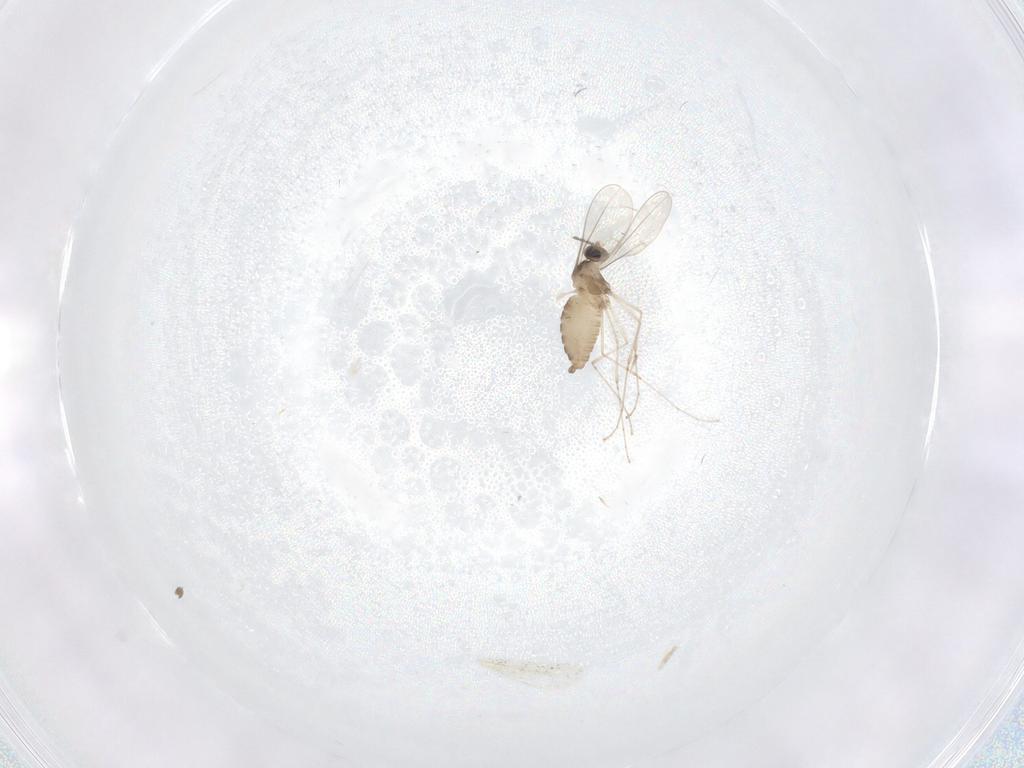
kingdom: Animalia
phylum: Arthropoda
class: Insecta
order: Diptera
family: Cecidomyiidae
